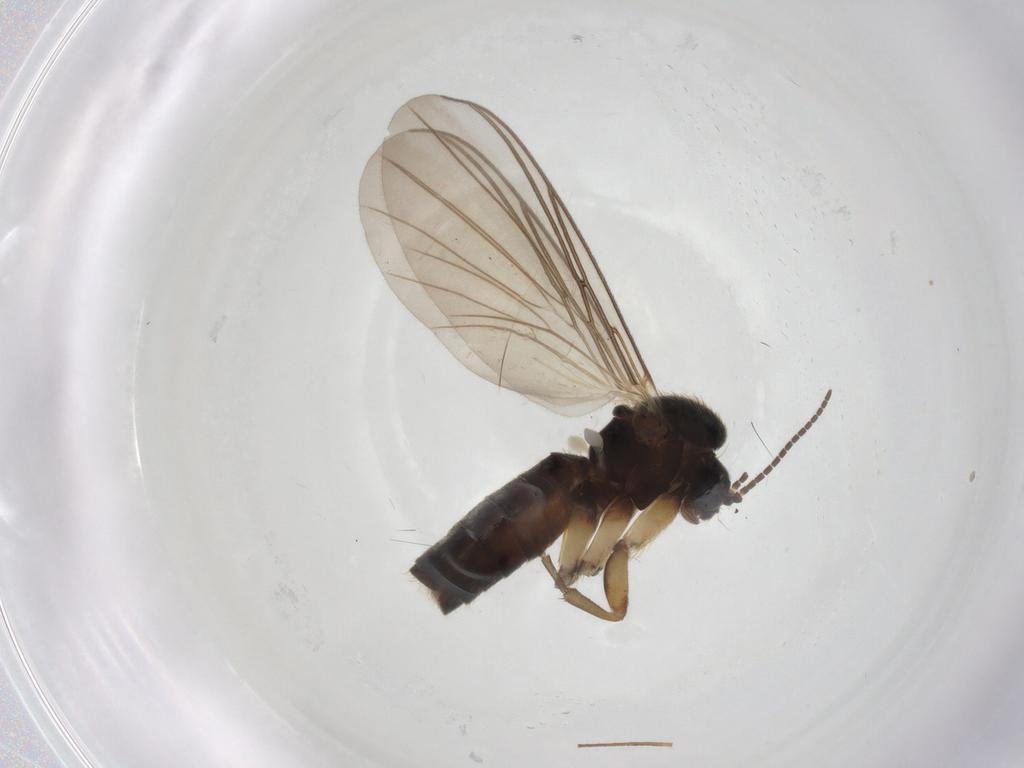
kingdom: Animalia
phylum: Arthropoda
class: Insecta
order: Diptera
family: Mycetophilidae
